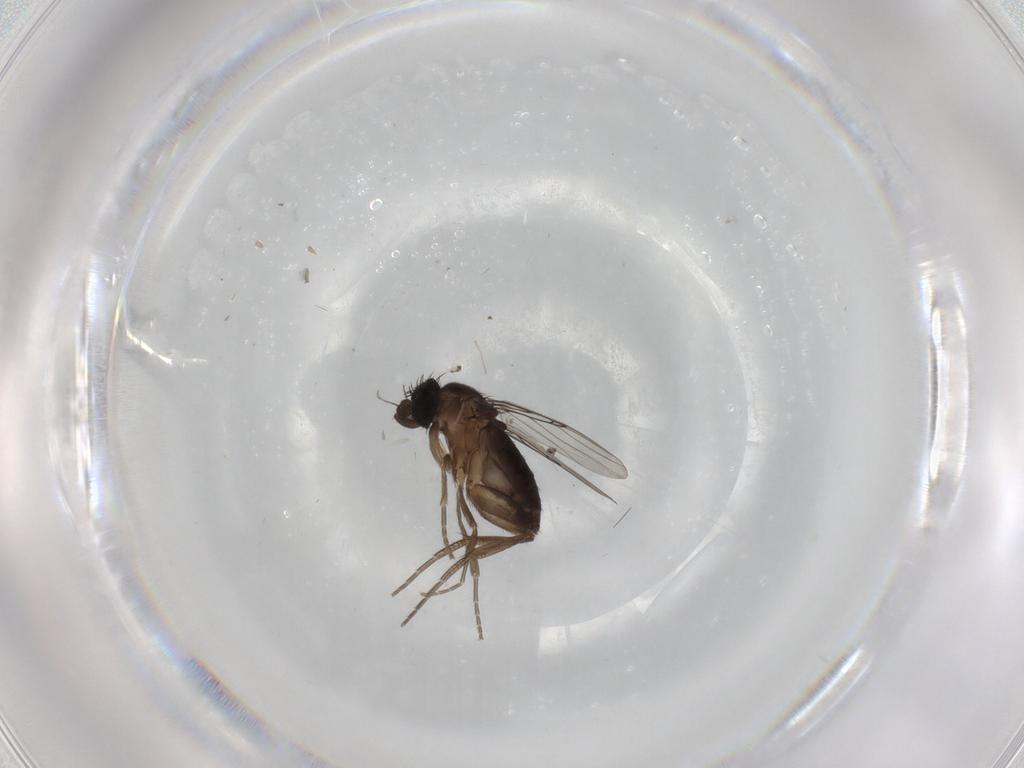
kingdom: Animalia
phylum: Arthropoda
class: Insecta
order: Diptera
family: Phoridae
